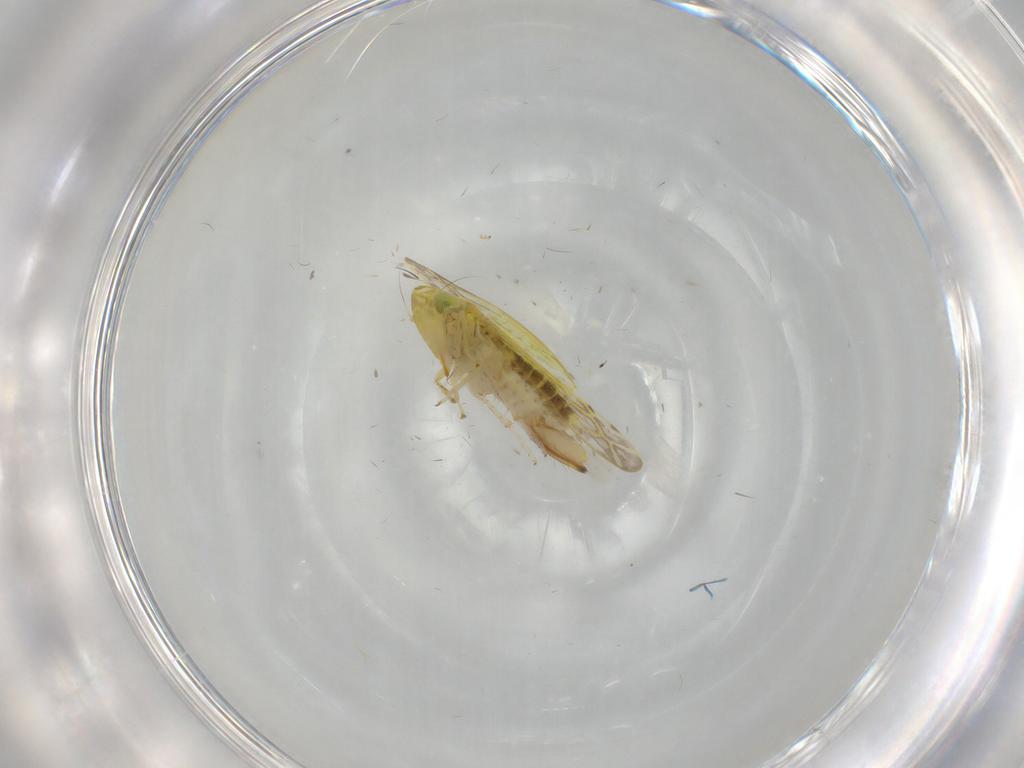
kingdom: Animalia
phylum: Arthropoda
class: Insecta
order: Hemiptera
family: Cicadellidae
